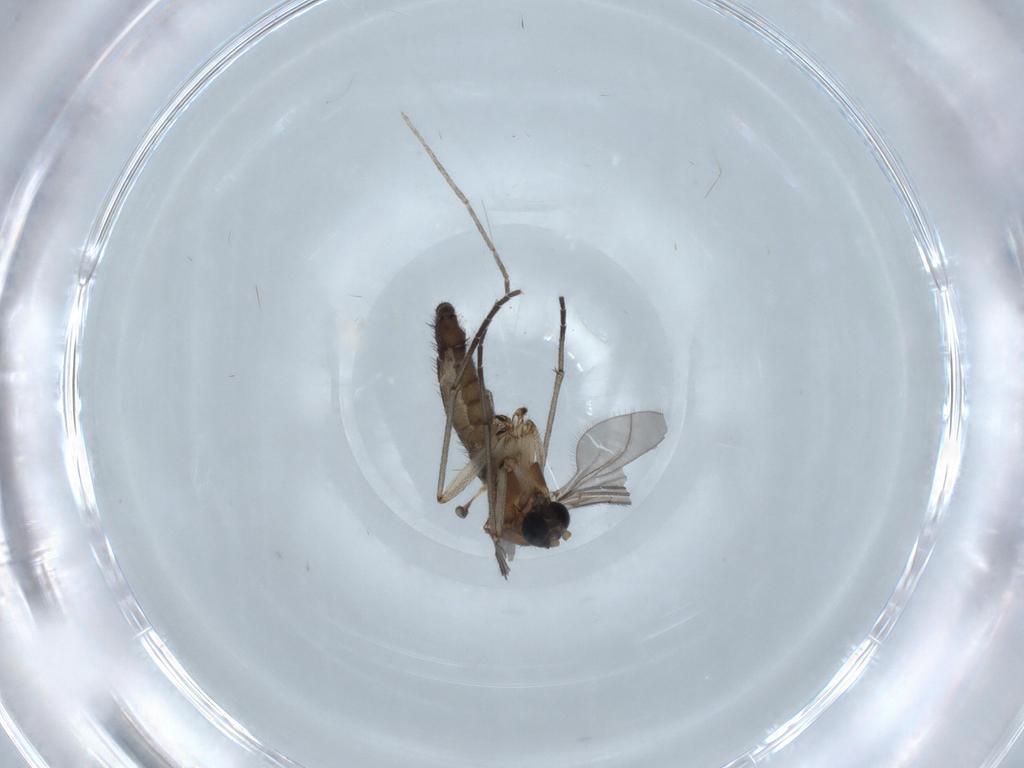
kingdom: Animalia
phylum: Arthropoda
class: Insecta
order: Diptera
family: Sciaridae
